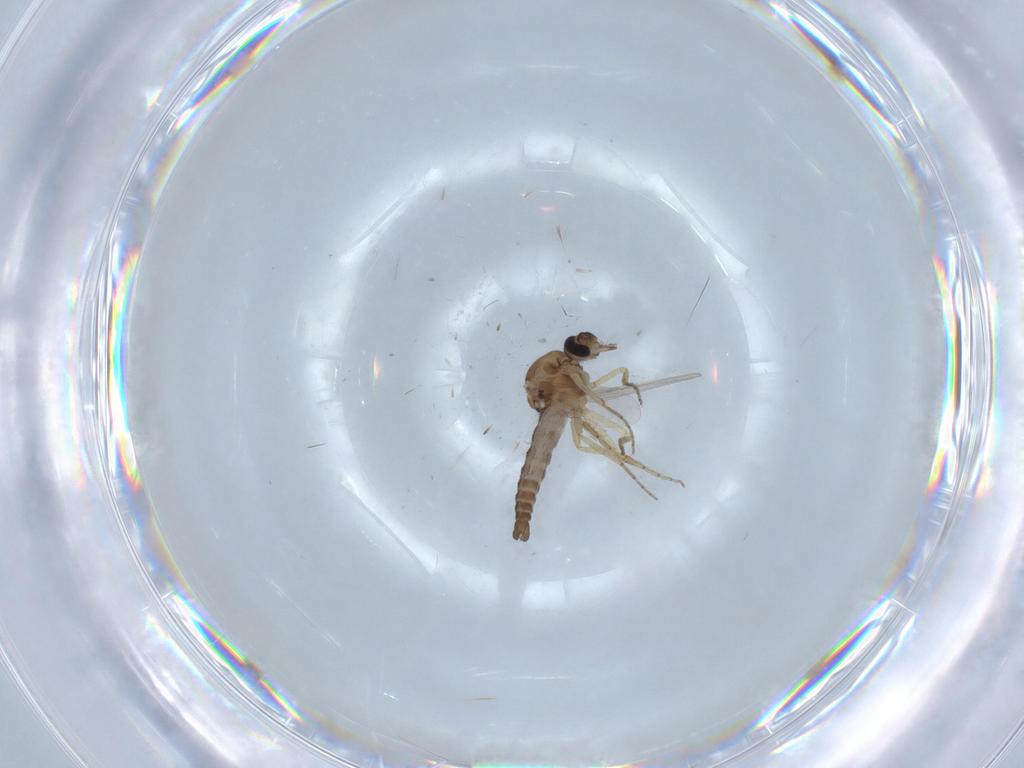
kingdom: Animalia
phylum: Arthropoda
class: Insecta
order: Diptera
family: Ceratopogonidae
